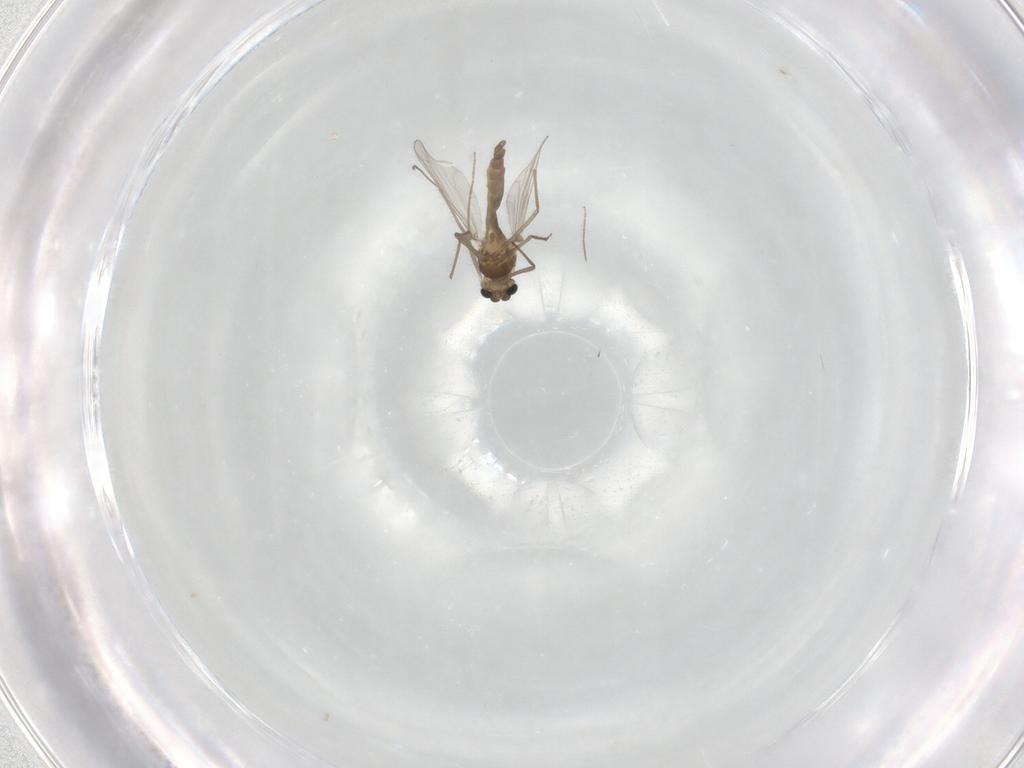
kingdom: Animalia
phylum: Arthropoda
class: Insecta
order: Diptera
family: Chironomidae
